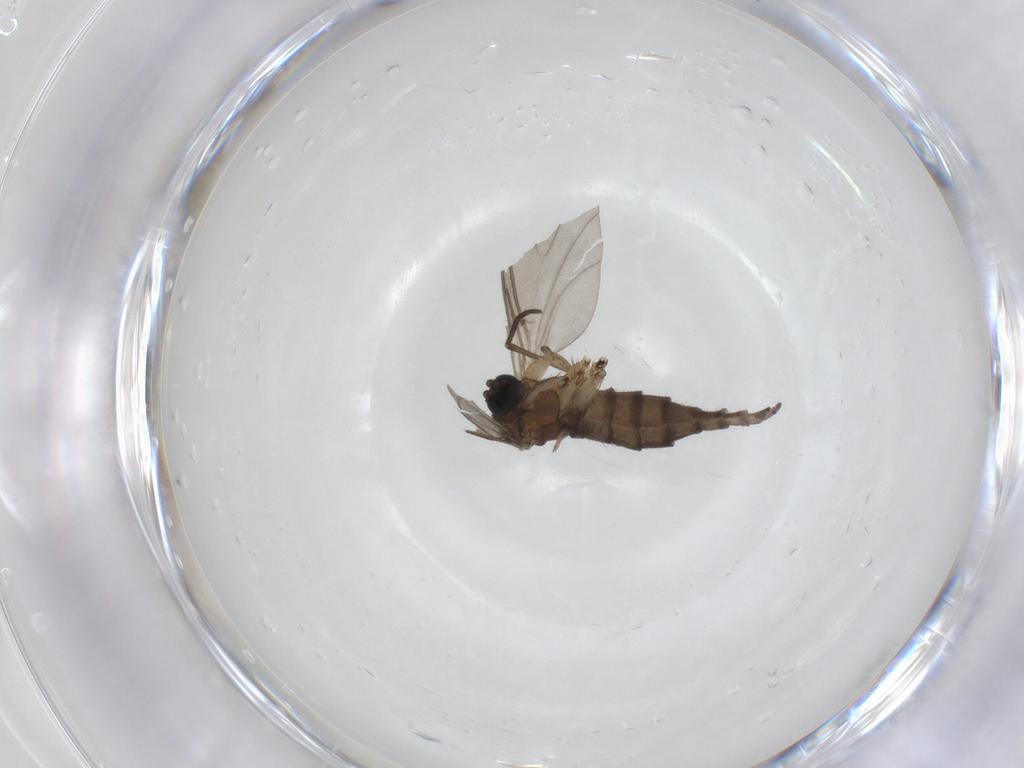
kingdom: Animalia
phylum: Arthropoda
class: Insecta
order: Diptera
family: Sciaridae
